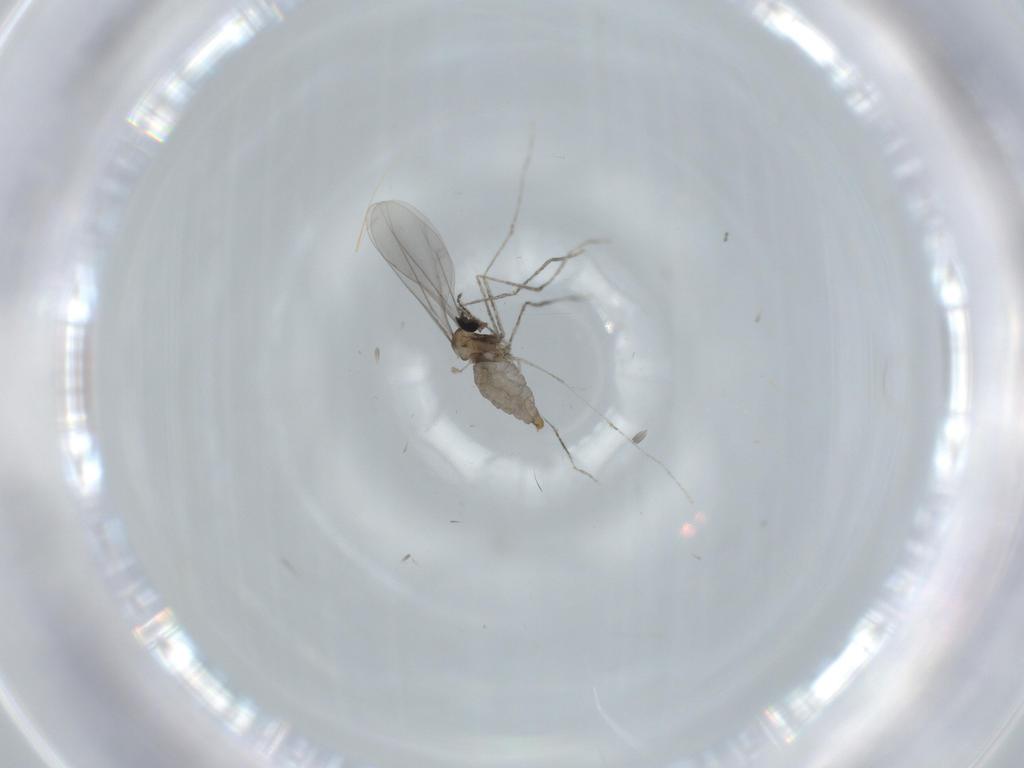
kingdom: Animalia
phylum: Arthropoda
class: Insecta
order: Diptera
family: Cecidomyiidae
